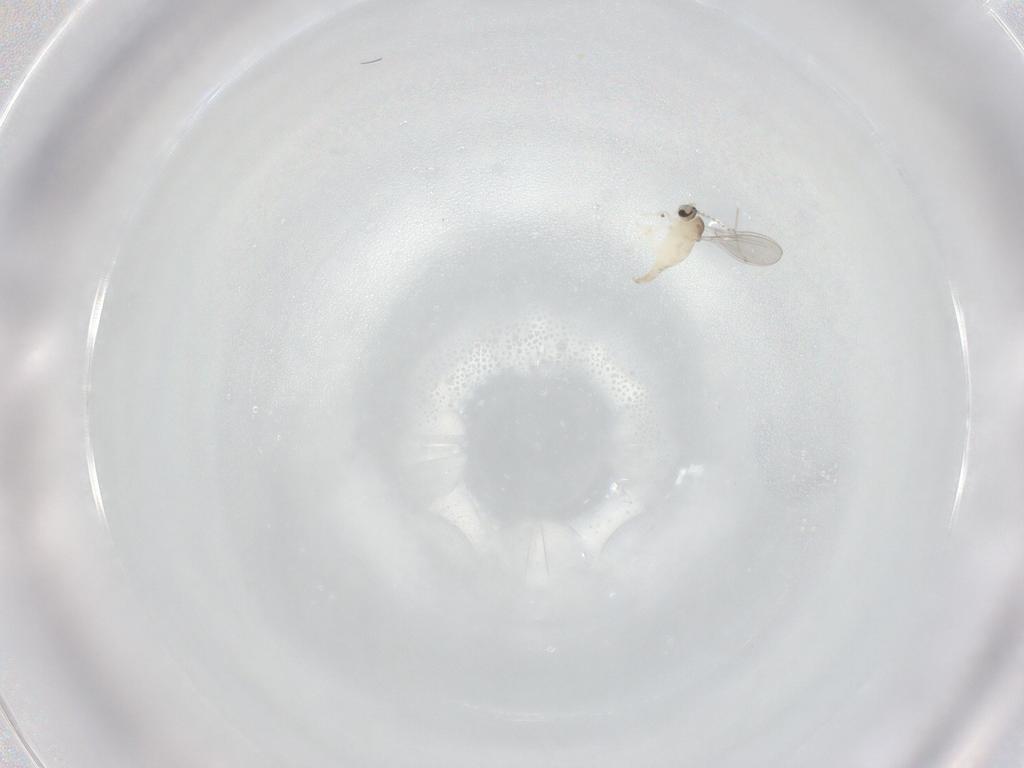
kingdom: Animalia
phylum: Arthropoda
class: Insecta
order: Diptera
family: Cecidomyiidae
